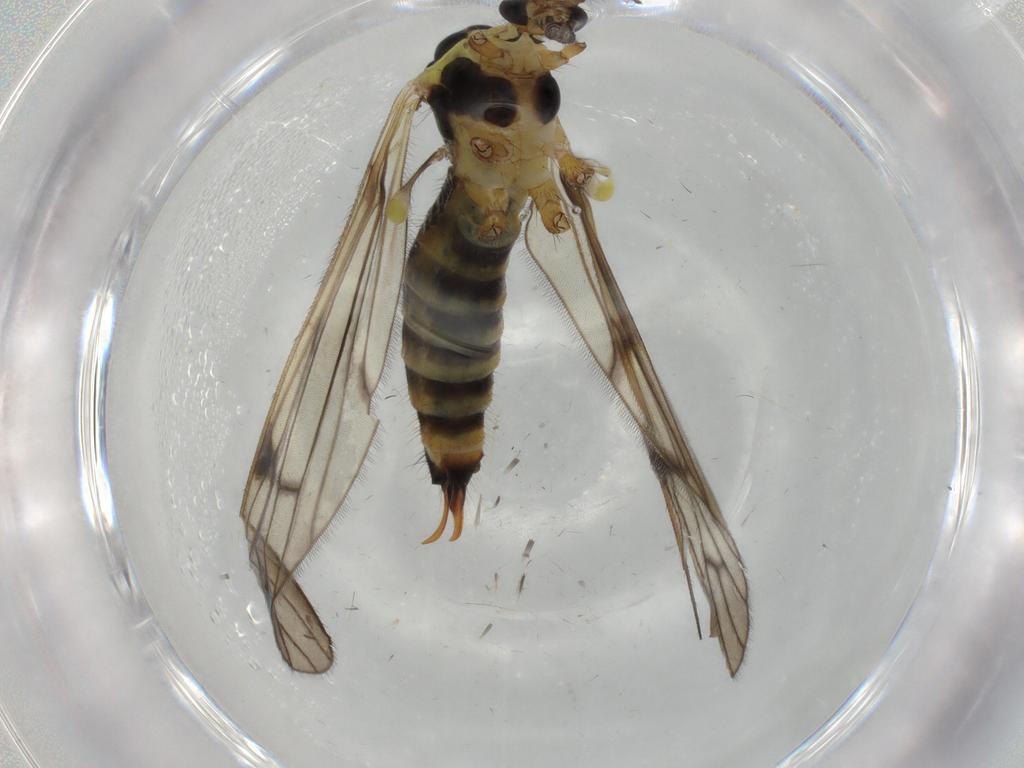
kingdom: Animalia
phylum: Arthropoda
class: Insecta
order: Diptera
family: Limoniidae
